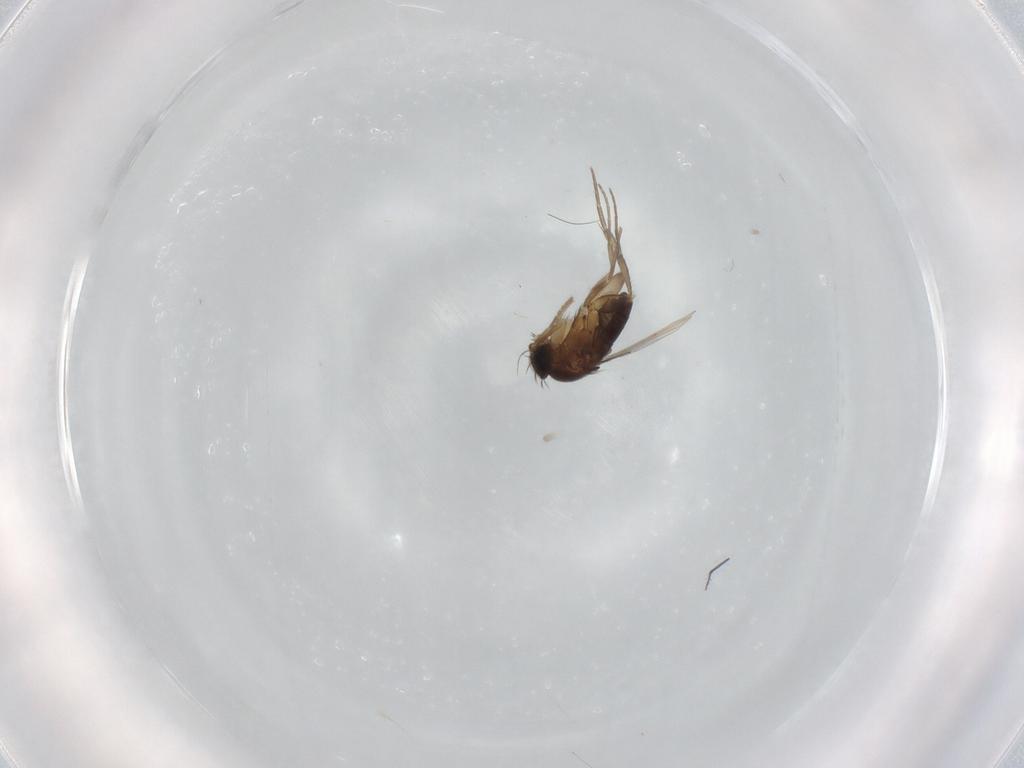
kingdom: Animalia
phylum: Arthropoda
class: Insecta
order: Diptera
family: Phoridae
